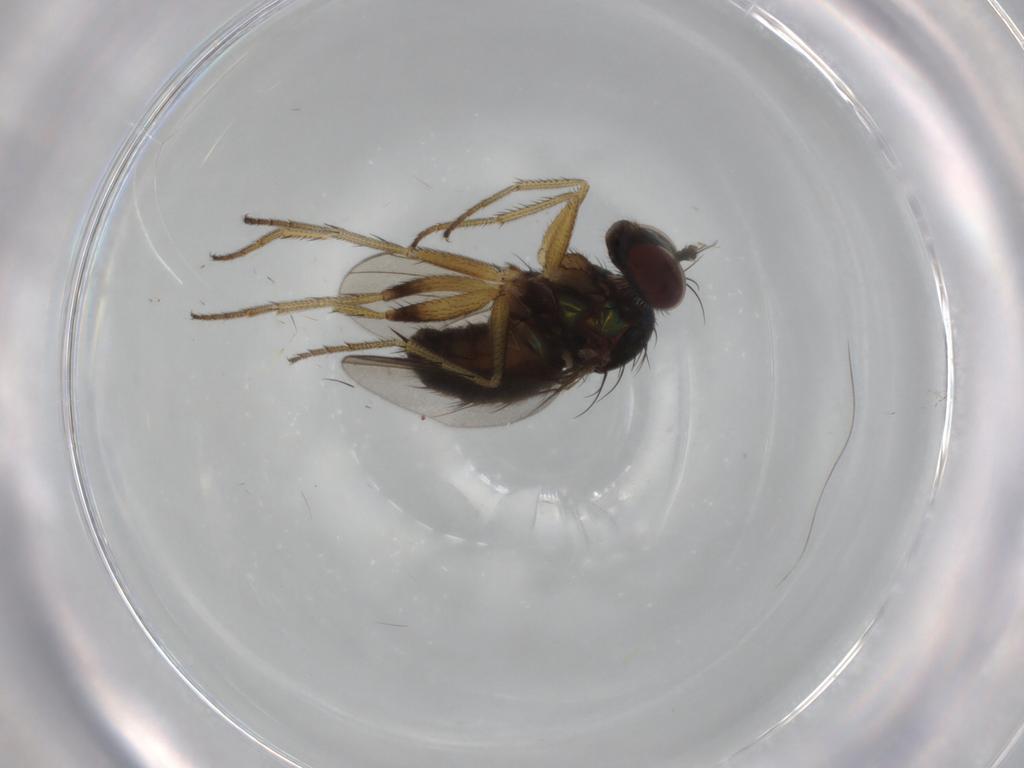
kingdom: Animalia
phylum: Arthropoda
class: Insecta
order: Diptera
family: Dolichopodidae
